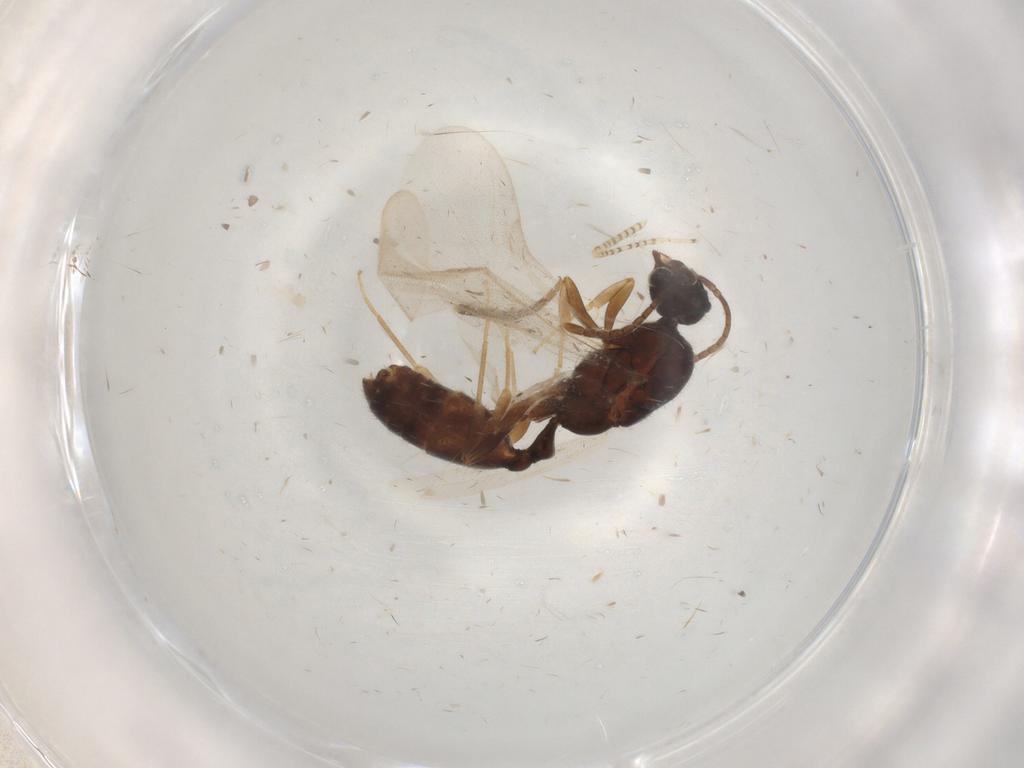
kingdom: Animalia
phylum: Arthropoda
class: Insecta
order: Hymenoptera
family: Formicidae
